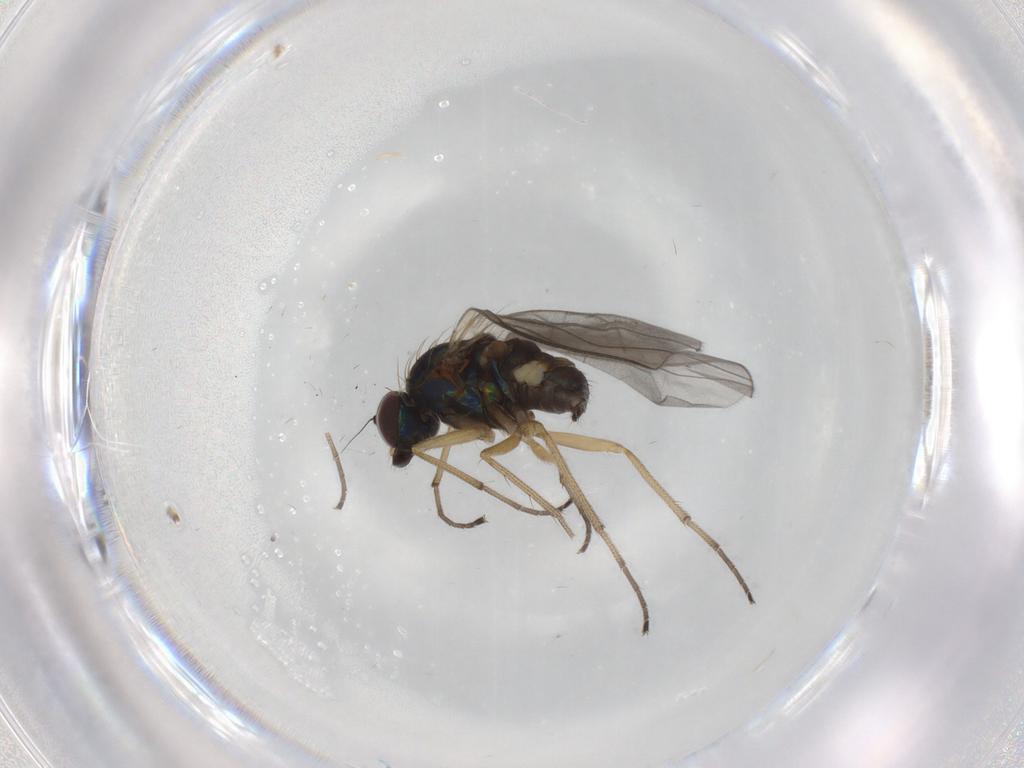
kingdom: Animalia
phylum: Arthropoda
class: Insecta
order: Diptera
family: Dolichopodidae
